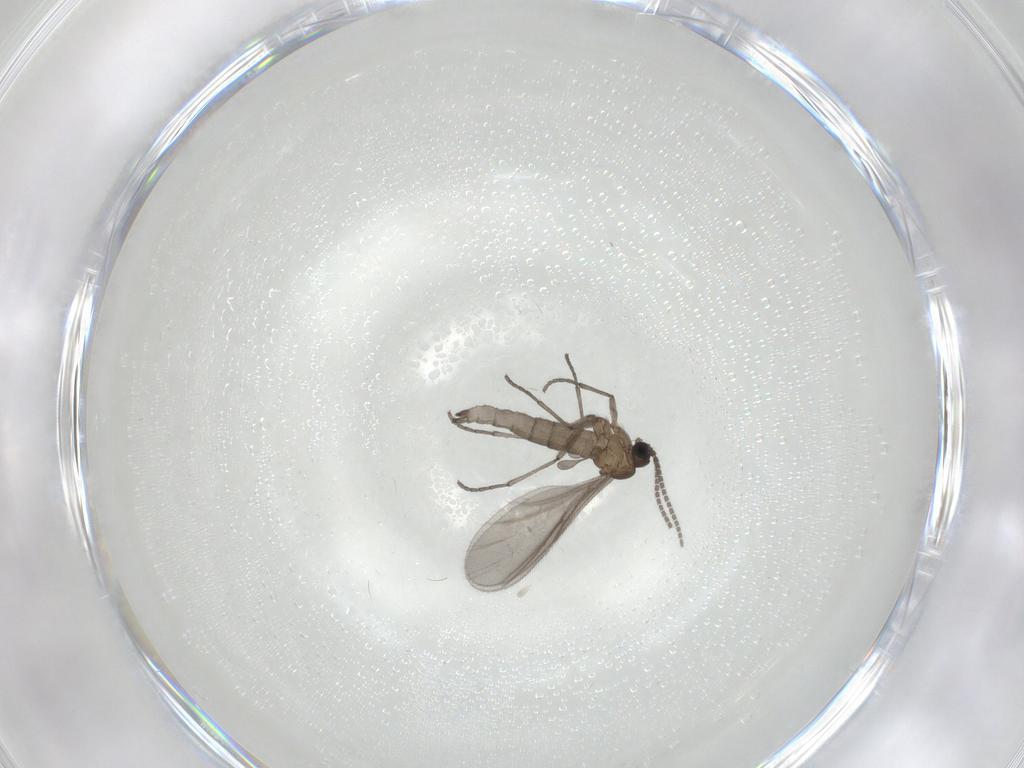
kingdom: Animalia
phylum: Arthropoda
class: Insecta
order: Diptera
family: Sciaridae
